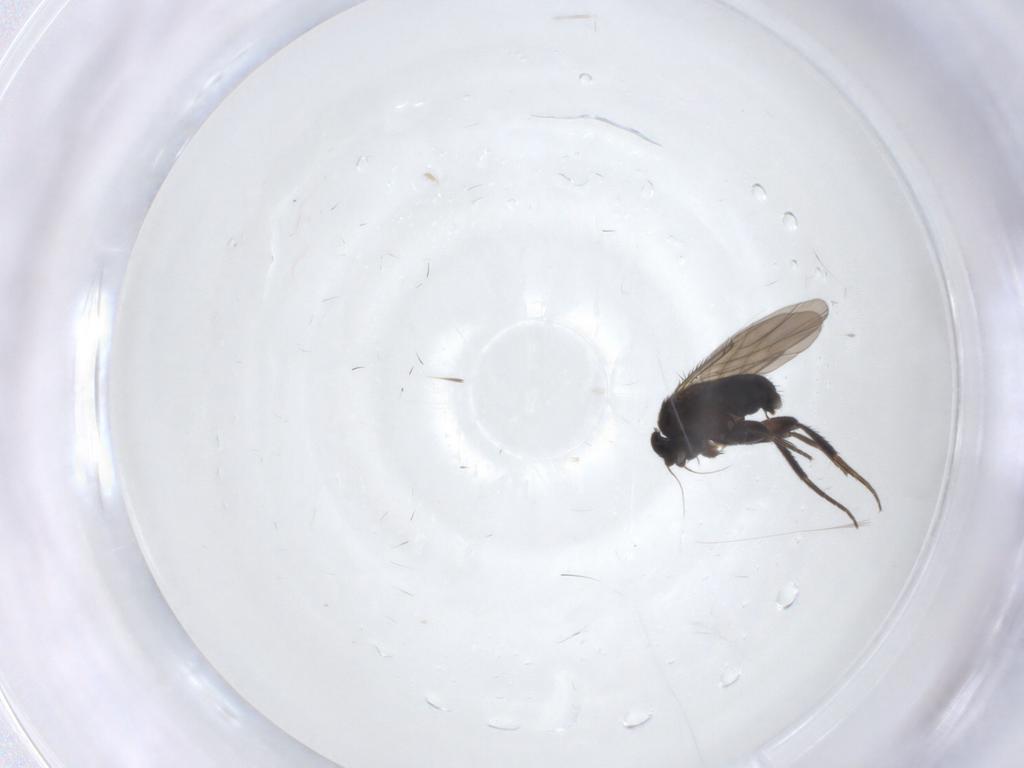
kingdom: Animalia
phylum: Arthropoda
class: Insecta
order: Diptera
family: Phoridae
